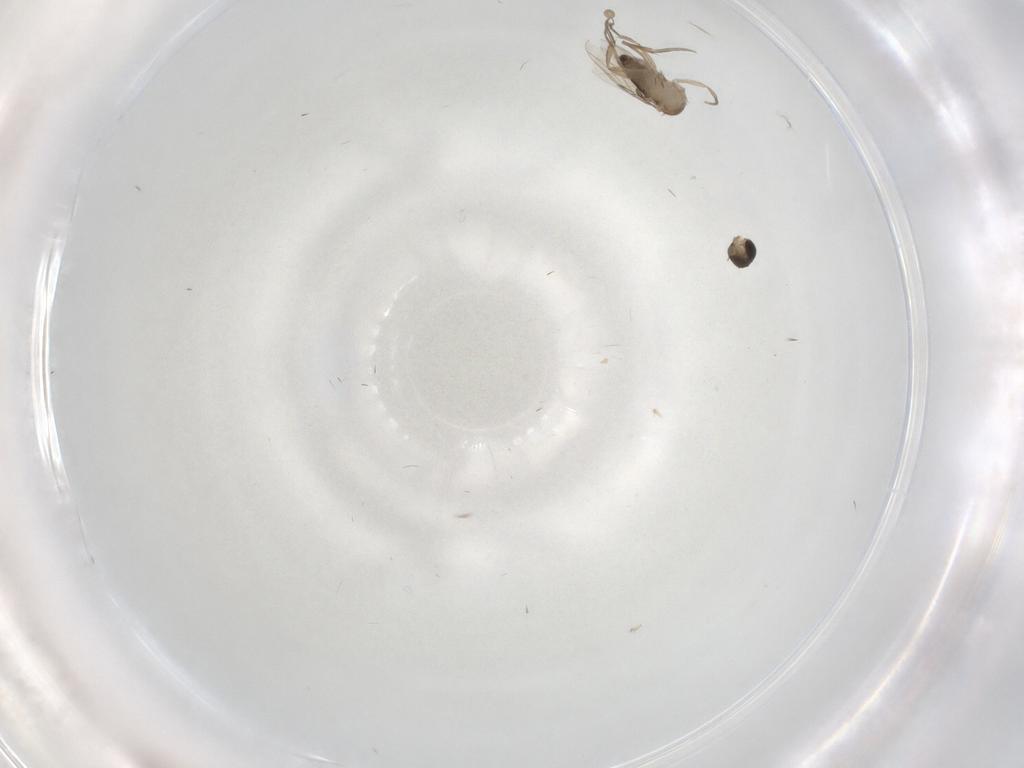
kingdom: Animalia
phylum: Arthropoda
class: Insecta
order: Diptera
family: Phoridae
